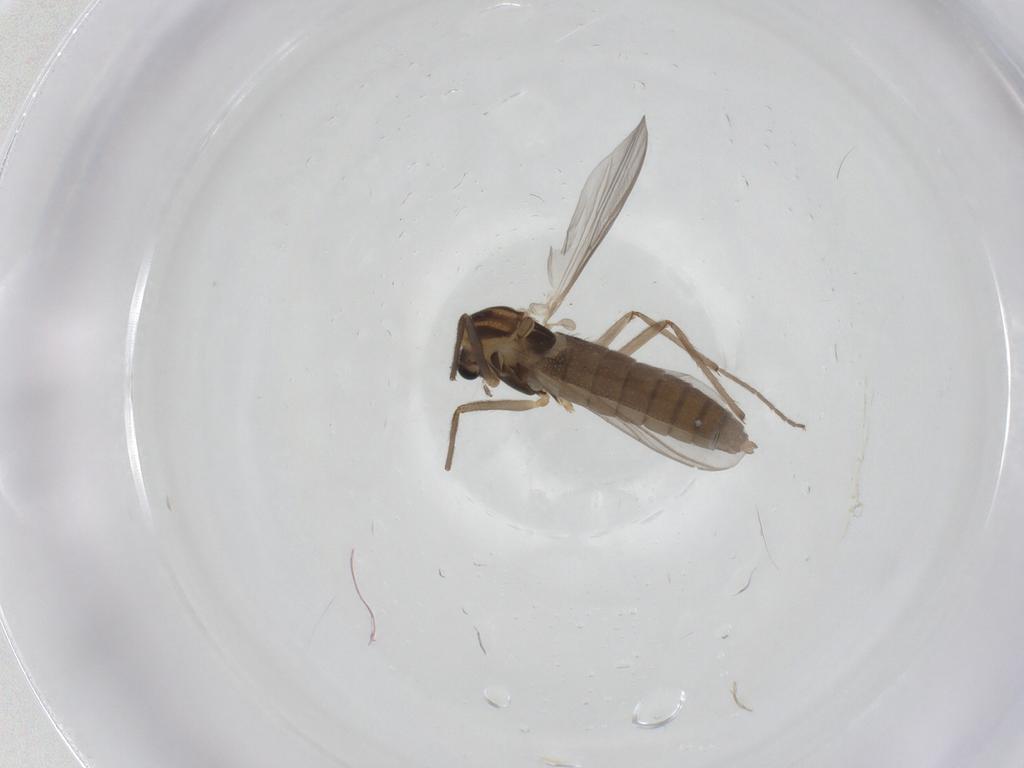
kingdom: Animalia
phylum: Arthropoda
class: Insecta
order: Diptera
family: Chironomidae
